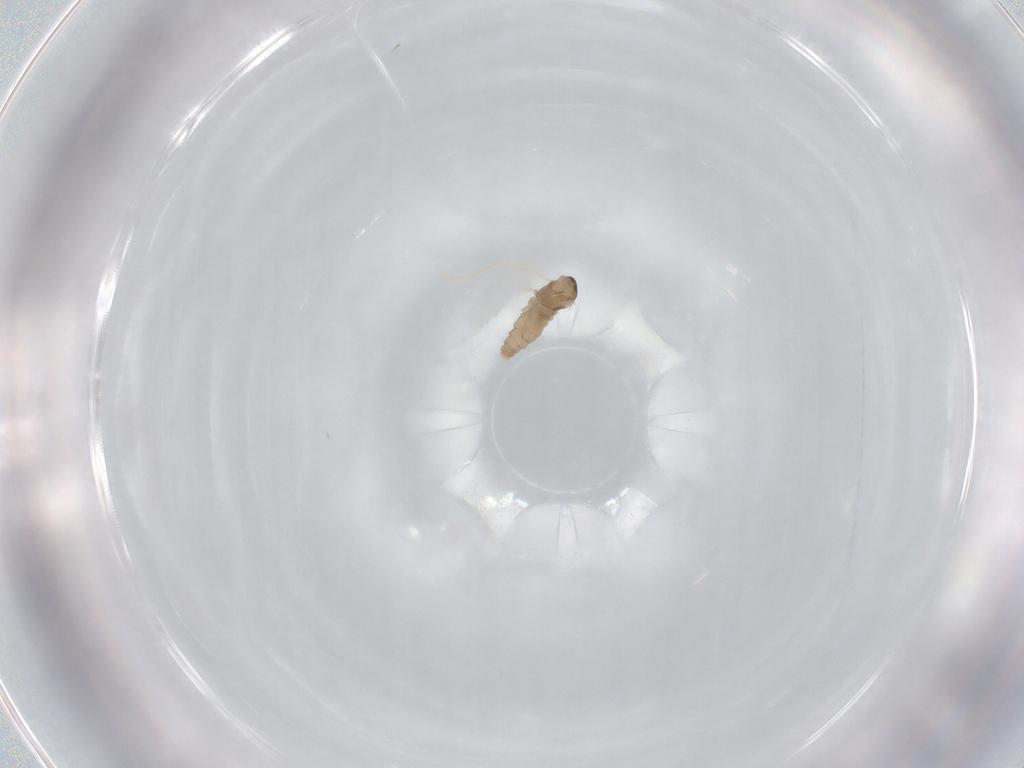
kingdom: Animalia
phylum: Arthropoda
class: Insecta
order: Diptera
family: Cecidomyiidae
